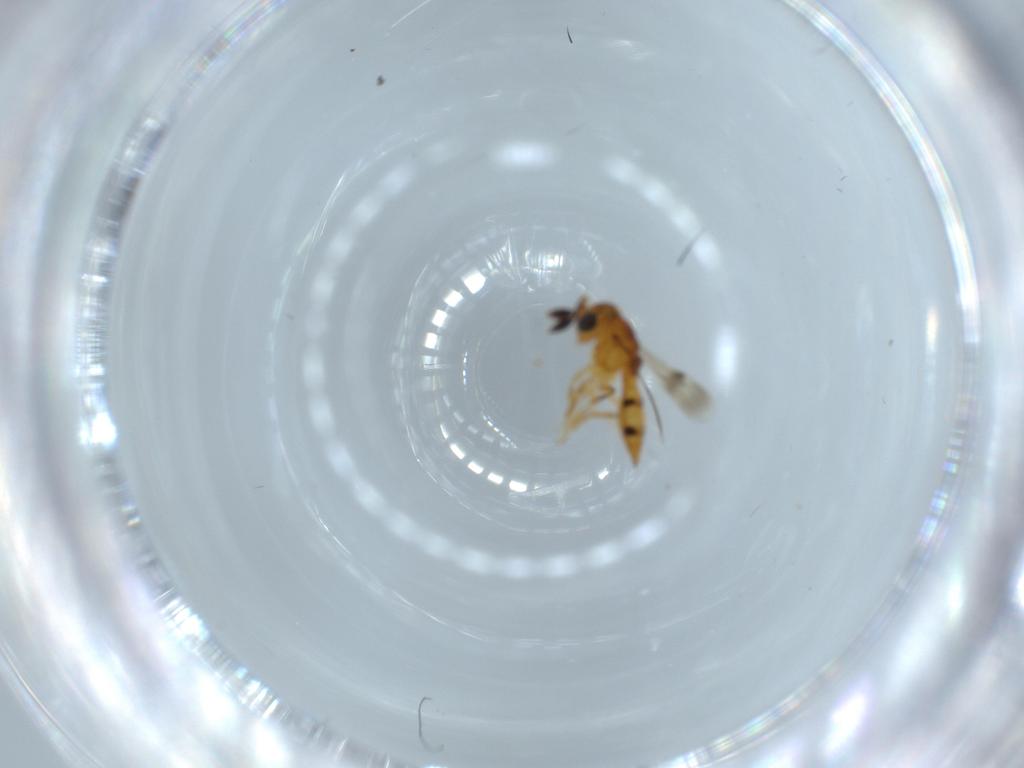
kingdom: Animalia
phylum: Arthropoda
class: Insecta
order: Hymenoptera
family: Scelionidae
